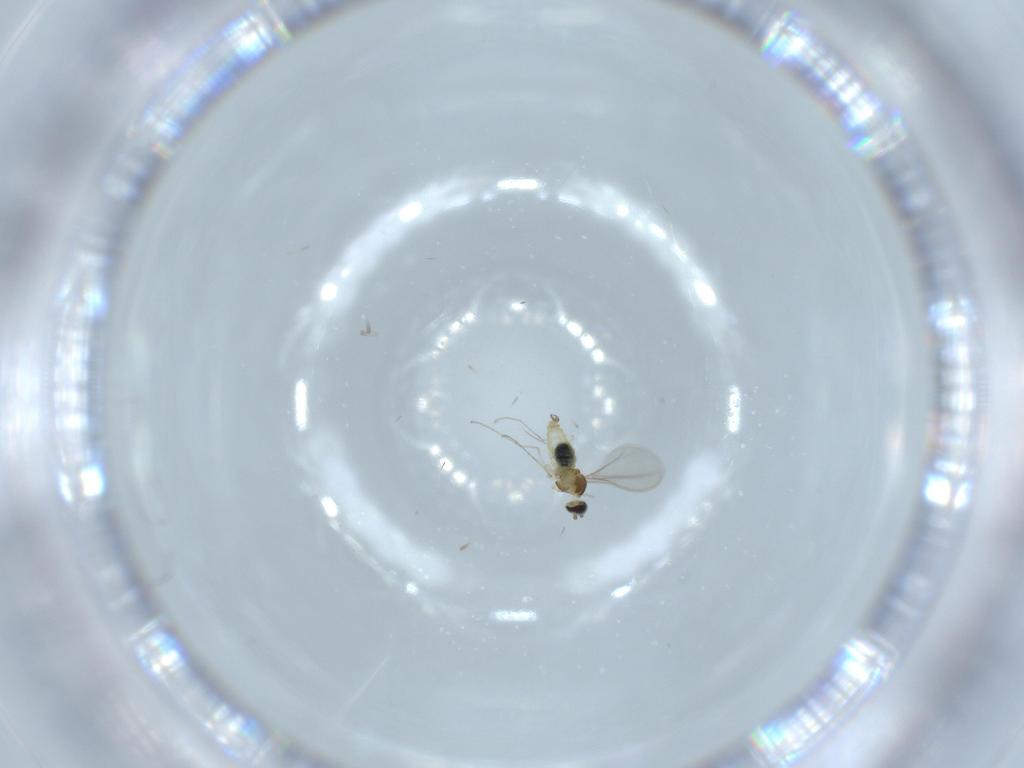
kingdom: Animalia
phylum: Arthropoda
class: Insecta
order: Diptera
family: Cecidomyiidae
